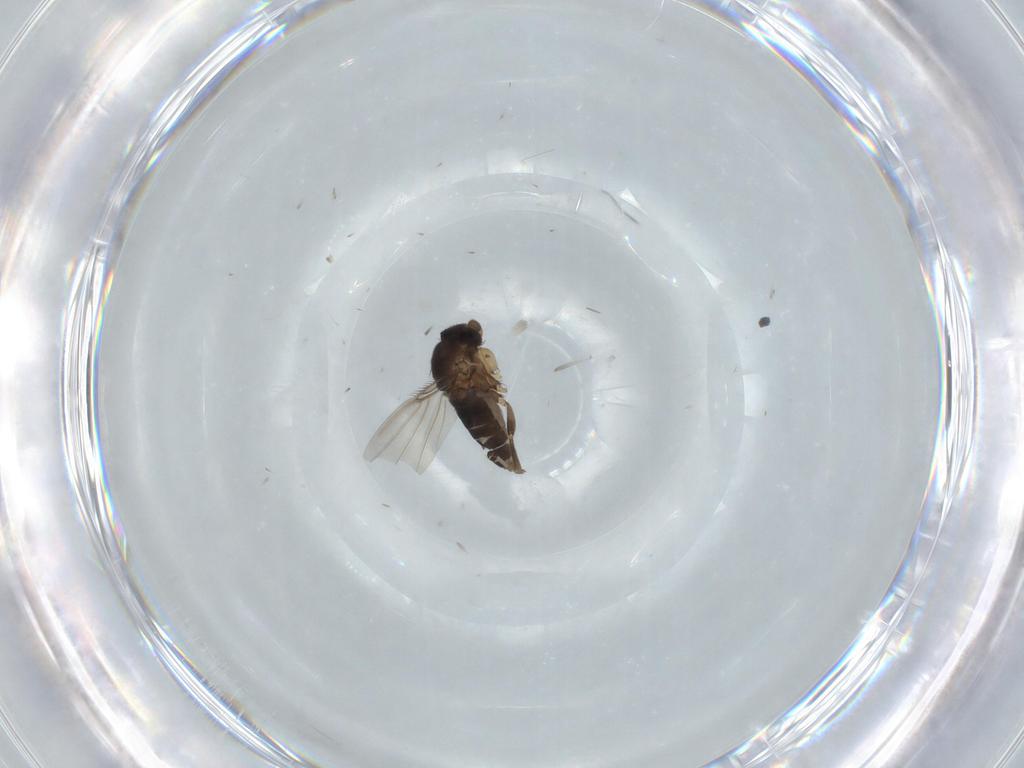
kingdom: Animalia
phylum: Arthropoda
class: Insecta
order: Diptera
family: Phoridae
